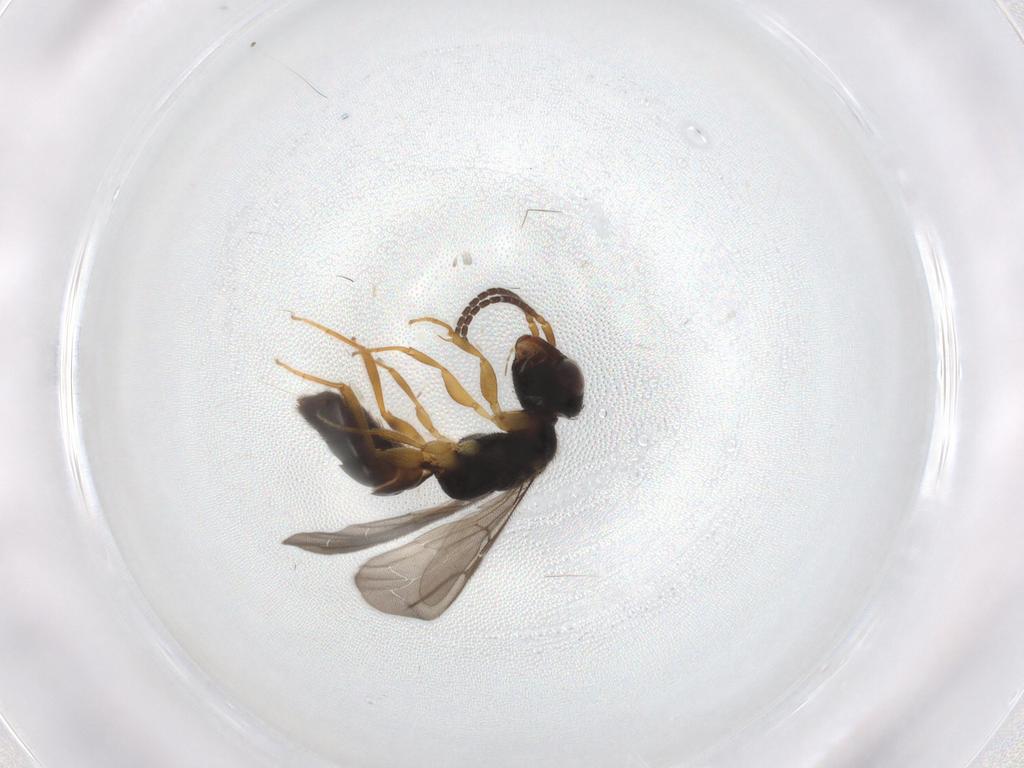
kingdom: Animalia
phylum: Arthropoda
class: Insecta
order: Hymenoptera
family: Bethylidae
